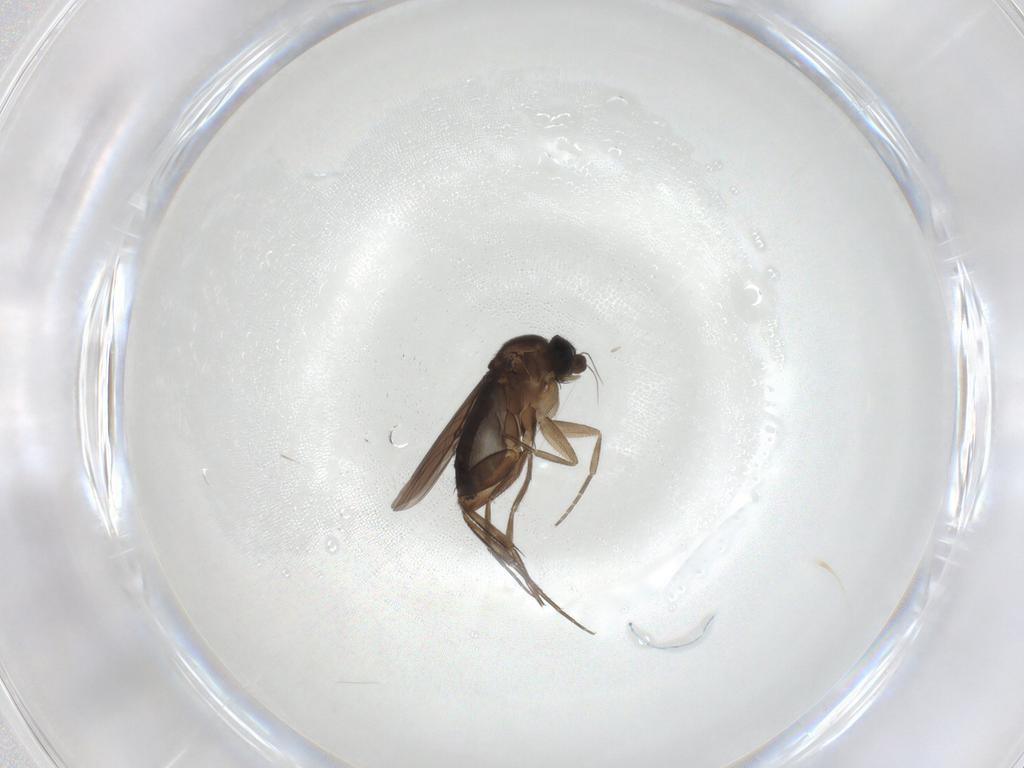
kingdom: Animalia
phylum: Arthropoda
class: Insecta
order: Diptera
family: Phoridae
